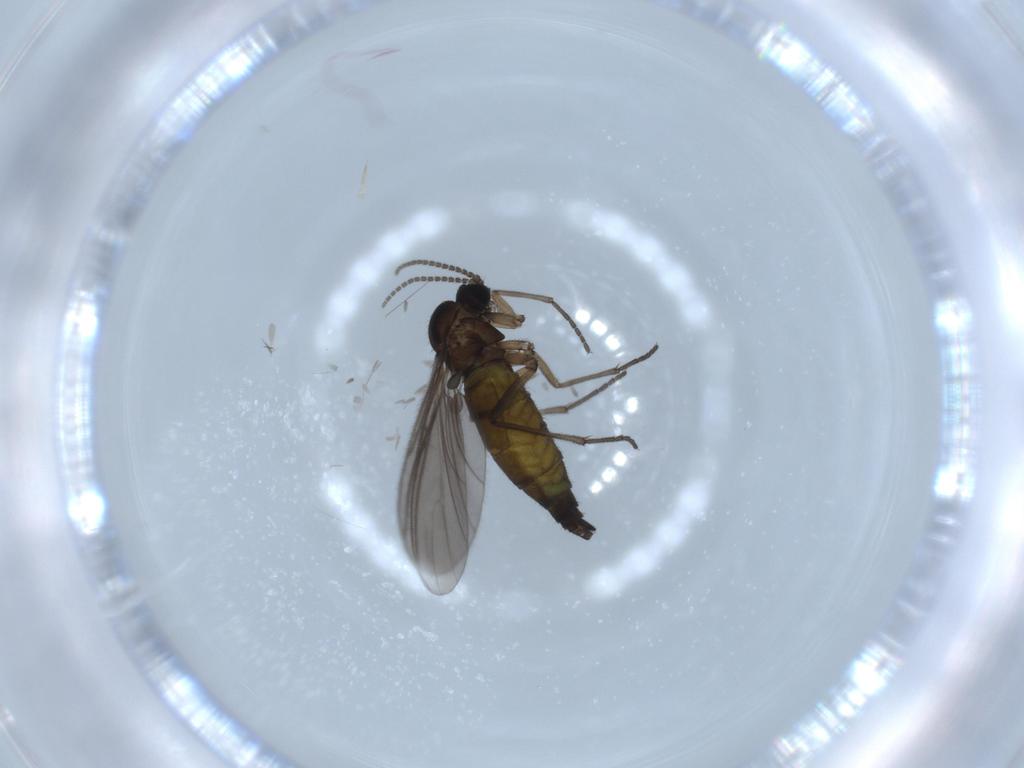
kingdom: Animalia
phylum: Arthropoda
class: Insecta
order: Diptera
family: Sciaridae
